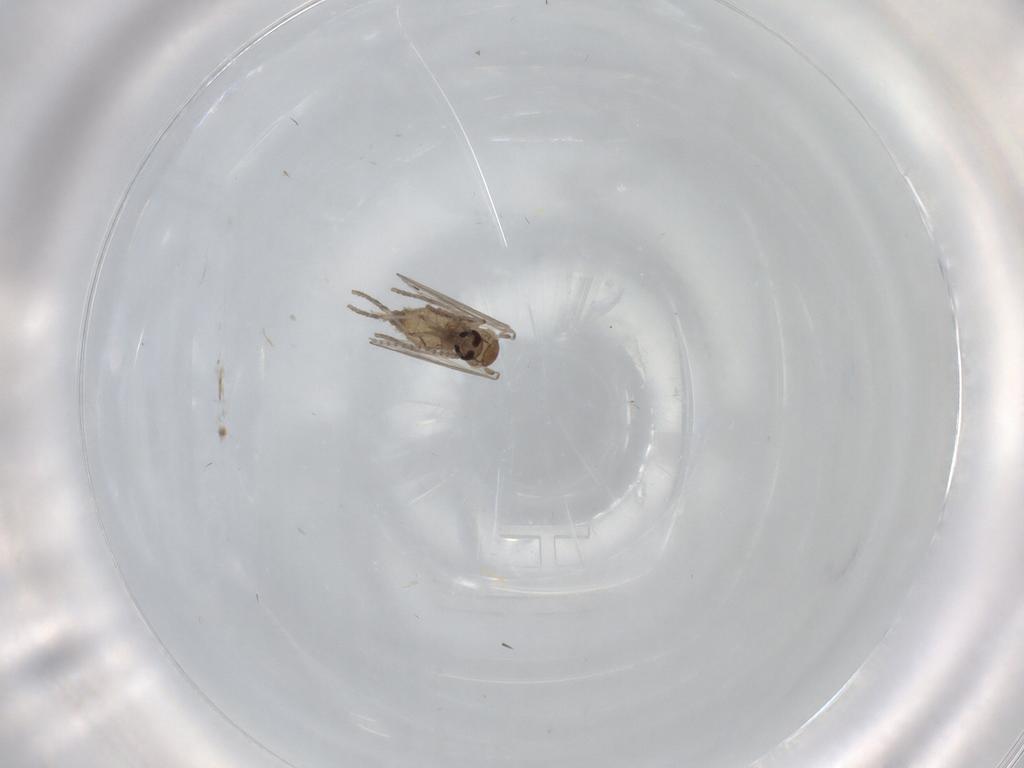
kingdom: Animalia
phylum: Arthropoda
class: Insecta
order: Diptera
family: Psychodidae
